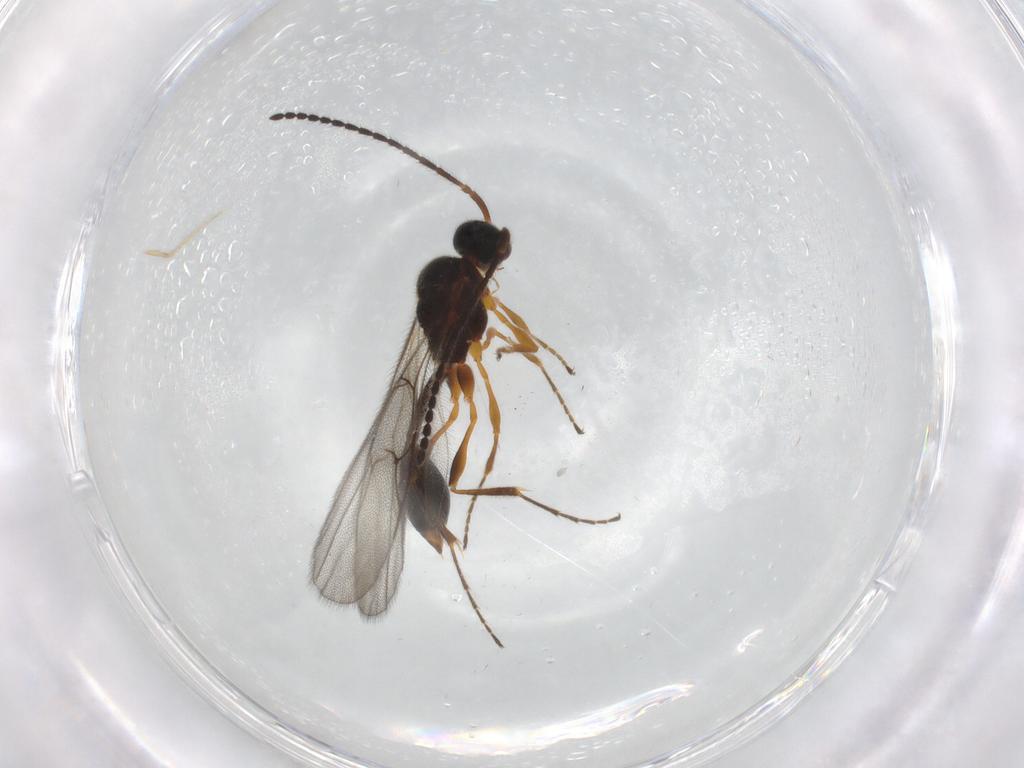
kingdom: Animalia
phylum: Arthropoda
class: Insecta
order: Hymenoptera
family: Diapriidae
